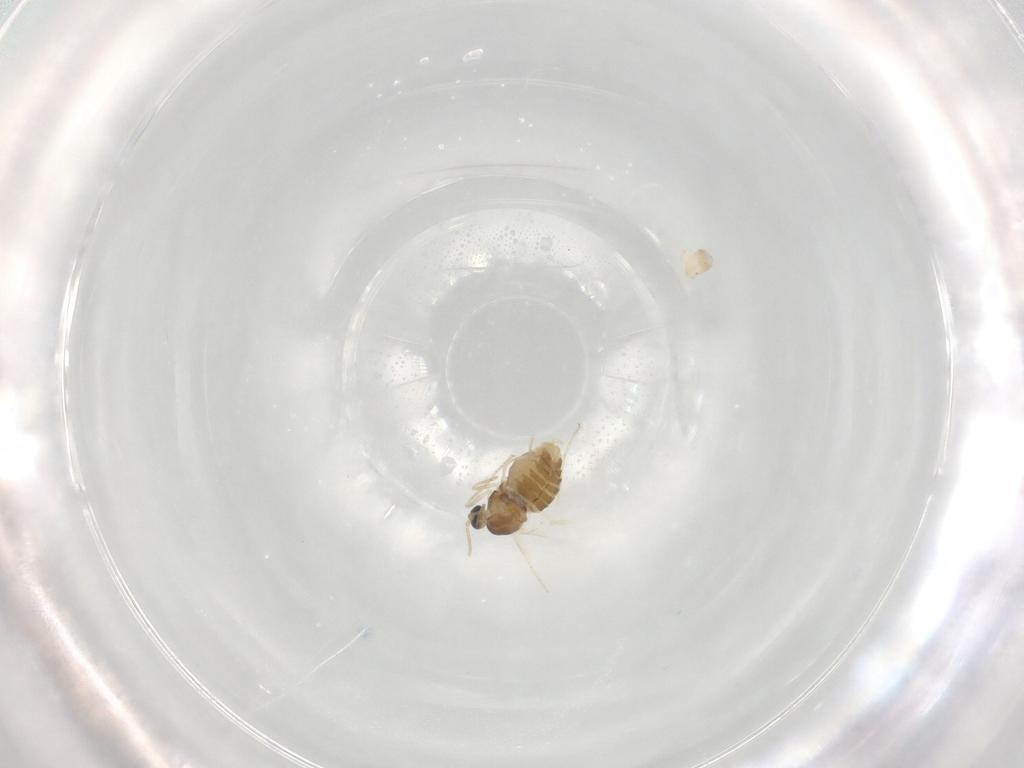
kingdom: Animalia
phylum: Arthropoda
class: Insecta
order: Diptera
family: Cecidomyiidae
